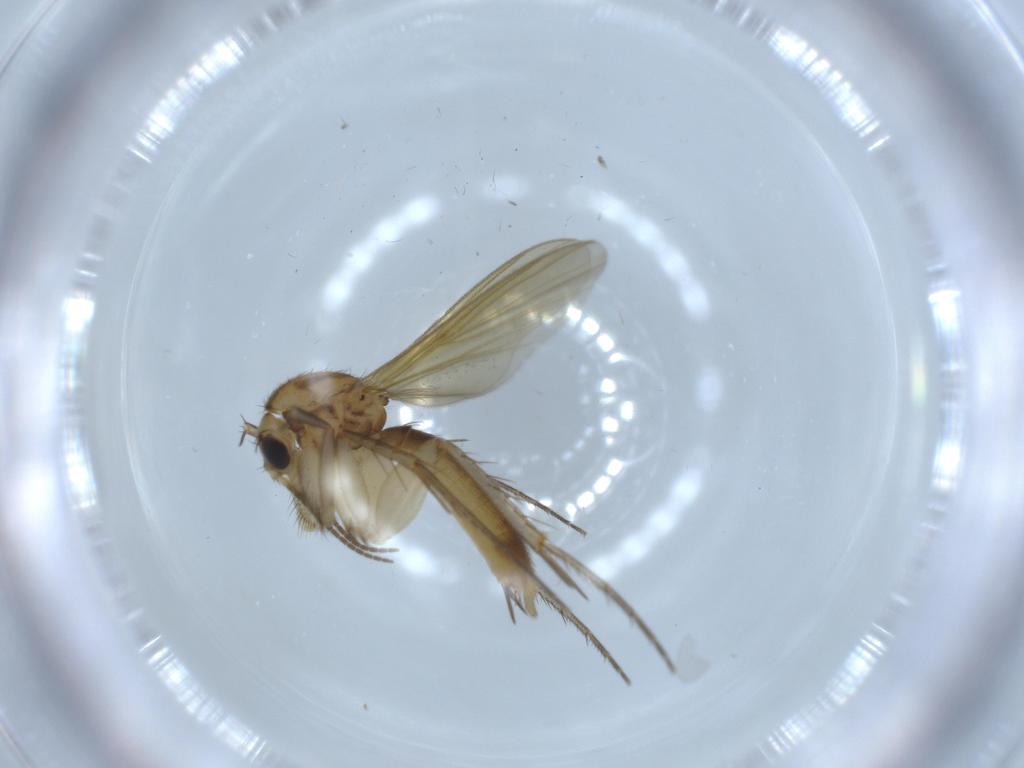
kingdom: Animalia
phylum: Arthropoda
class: Insecta
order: Diptera
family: Mycetophilidae
